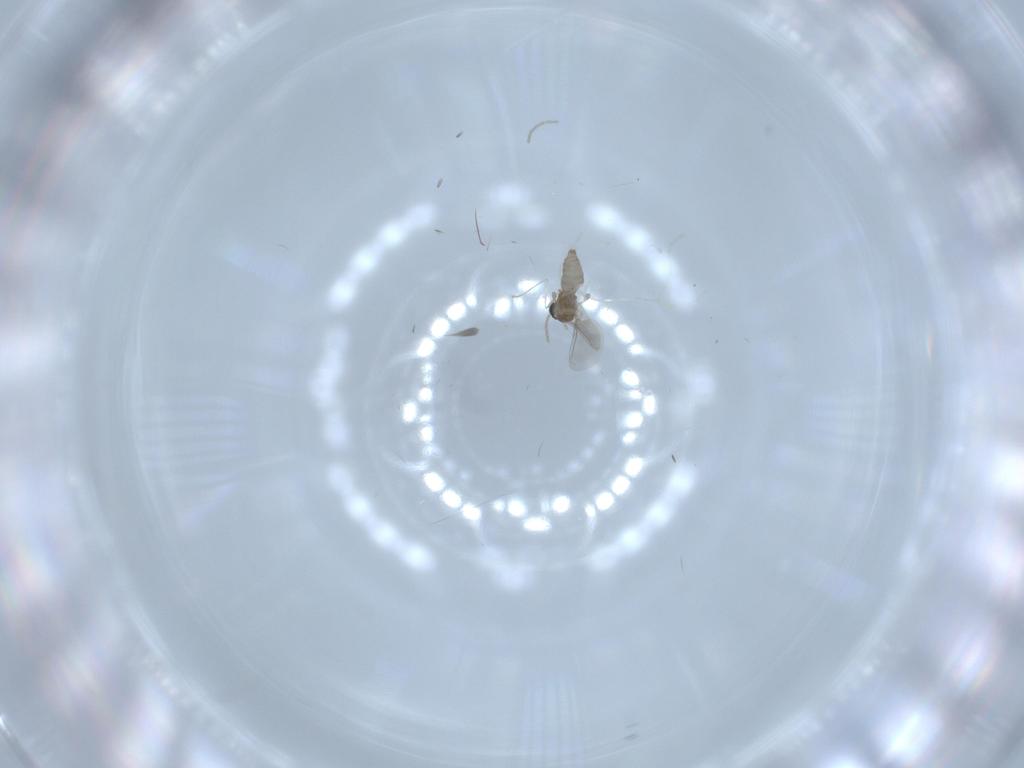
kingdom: Animalia
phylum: Arthropoda
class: Insecta
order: Diptera
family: Cecidomyiidae
